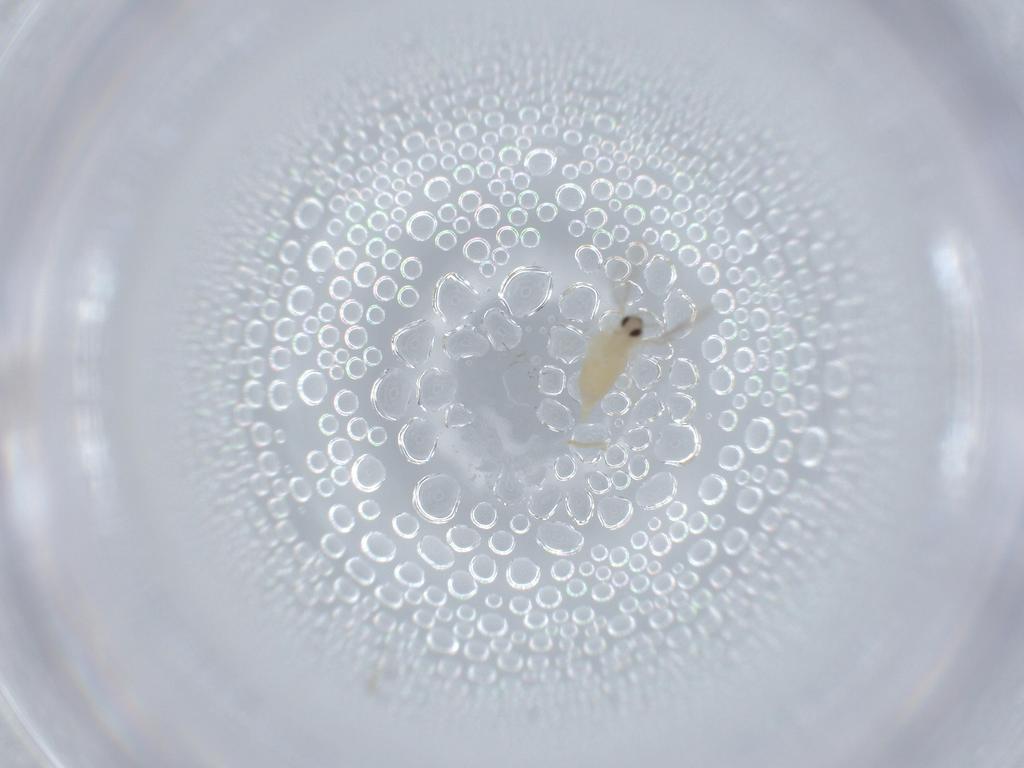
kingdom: Animalia
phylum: Arthropoda
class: Insecta
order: Diptera
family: Cecidomyiidae
